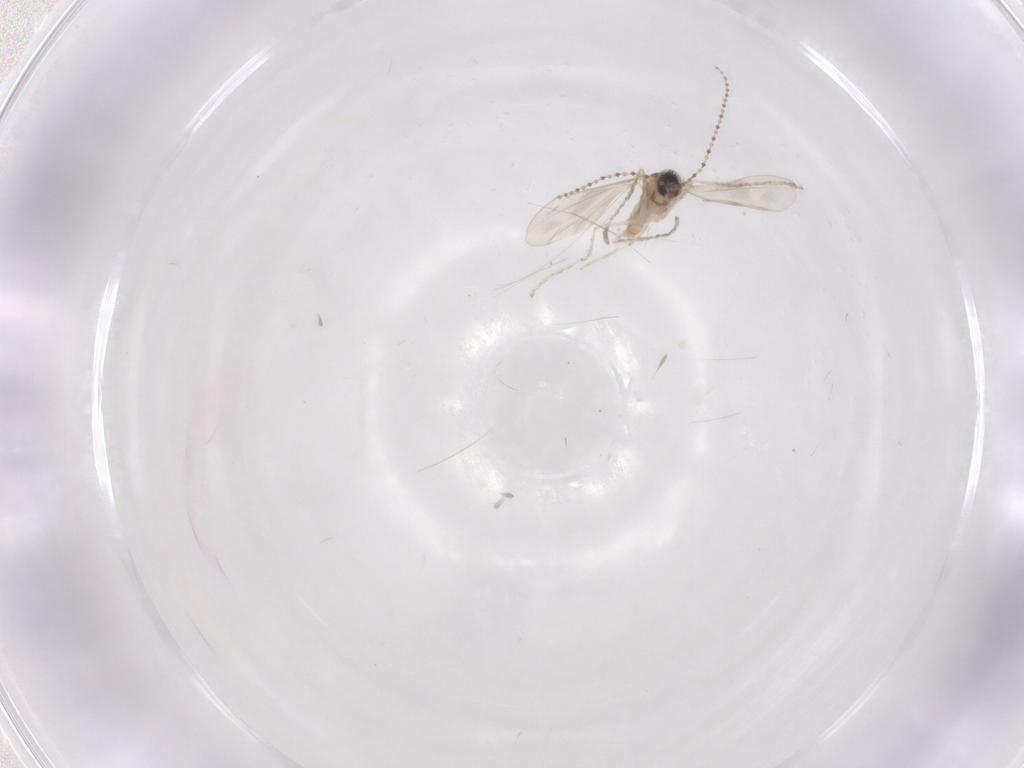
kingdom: Animalia
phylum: Arthropoda
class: Insecta
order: Diptera
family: Cecidomyiidae
